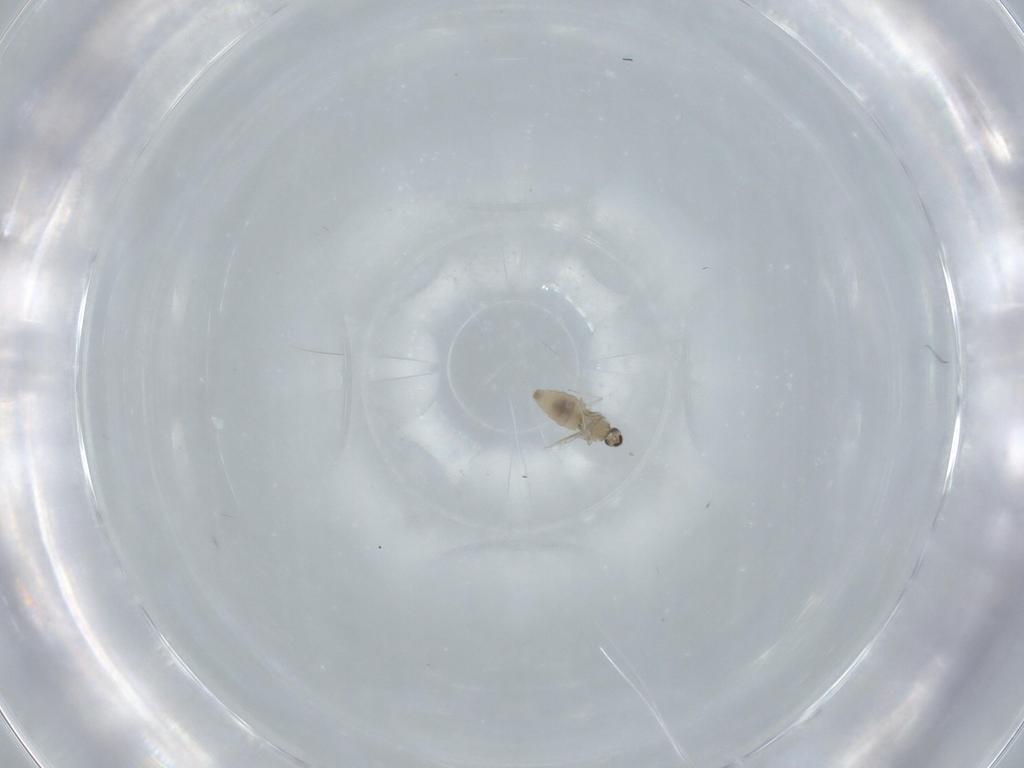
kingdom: Animalia
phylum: Arthropoda
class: Insecta
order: Diptera
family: Cecidomyiidae
